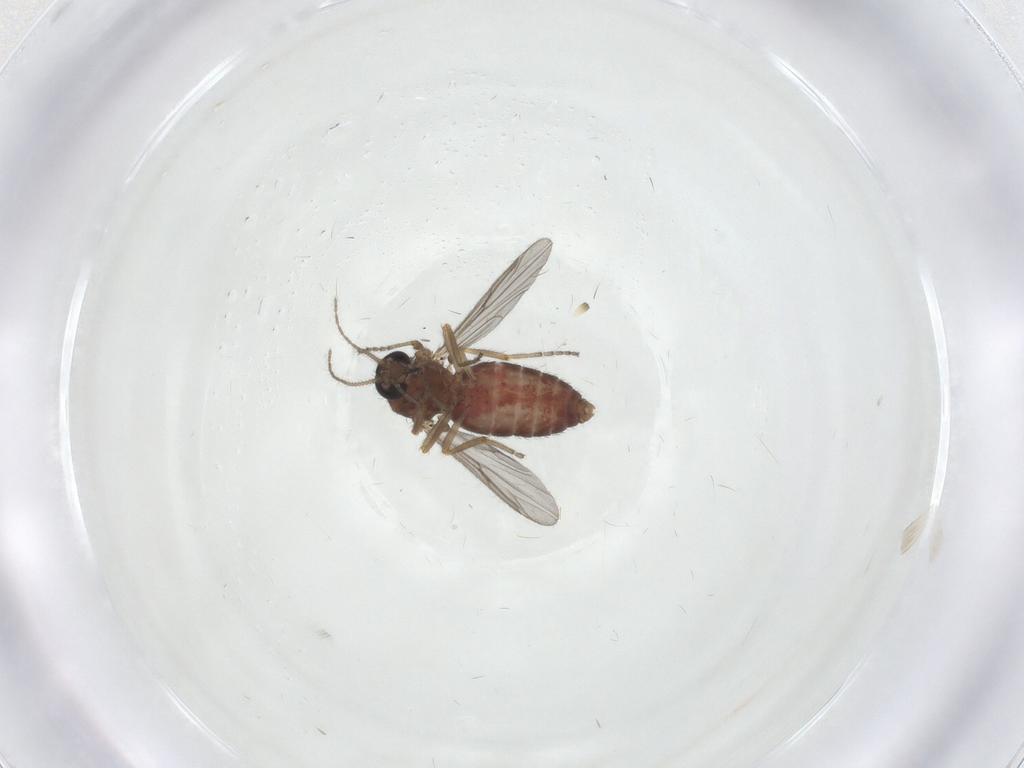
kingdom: Animalia
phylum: Arthropoda
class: Insecta
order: Diptera
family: Ceratopogonidae
